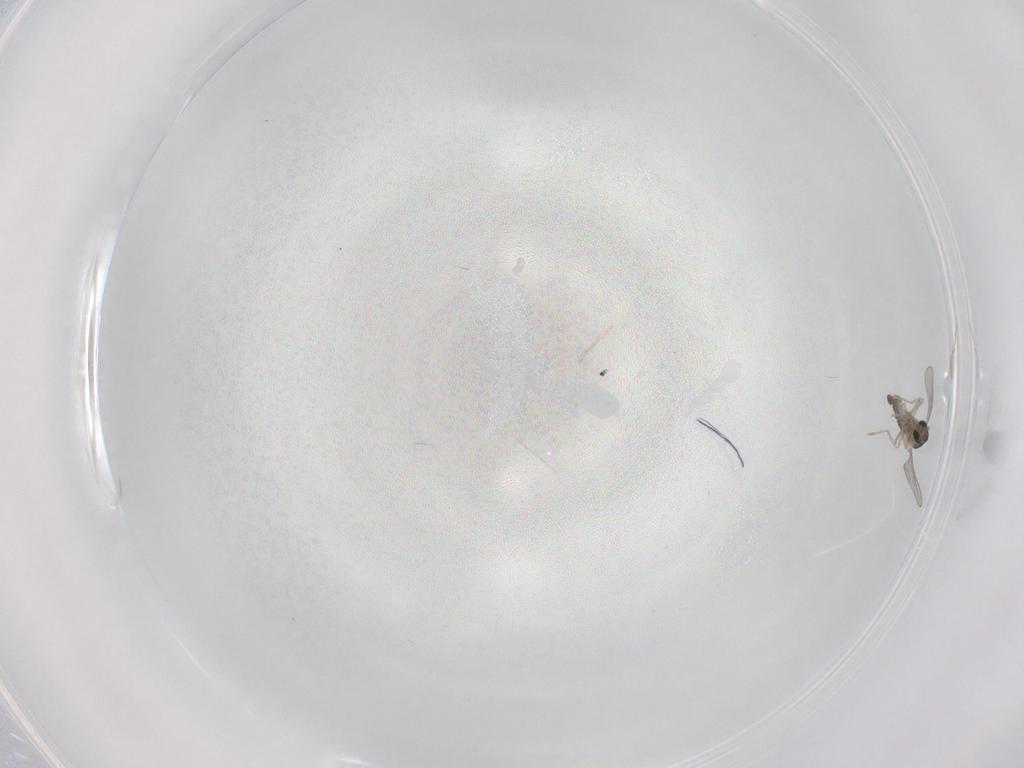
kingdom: Animalia
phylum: Arthropoda
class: Insecta
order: Diptera
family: Cecidomyiidae
